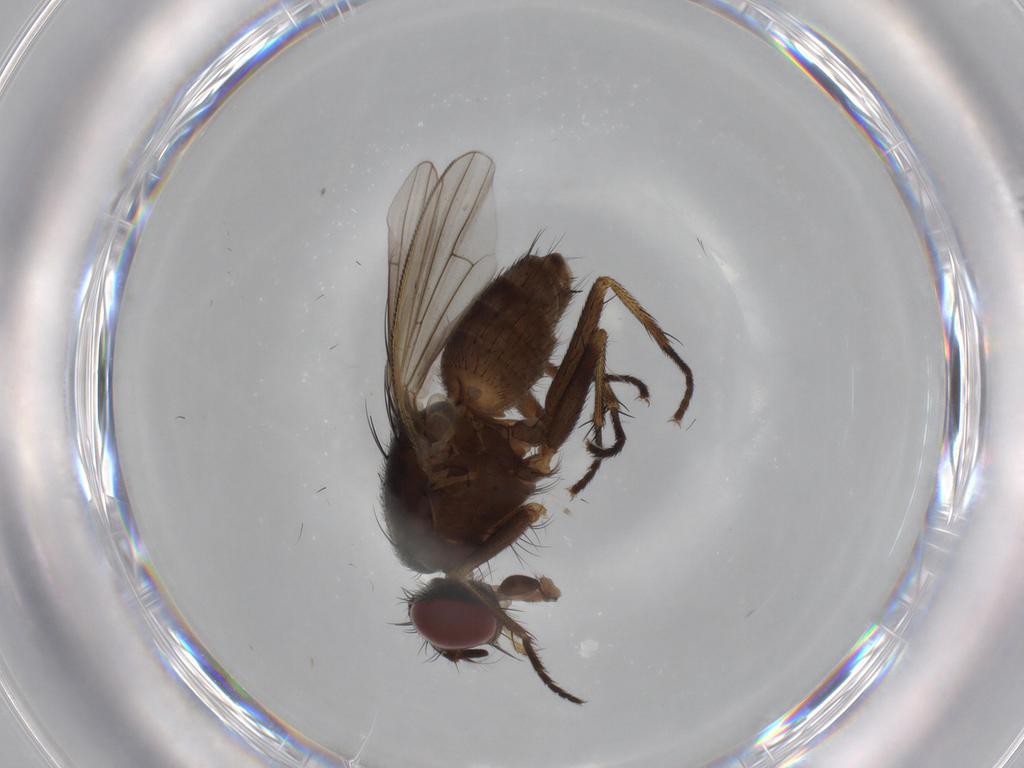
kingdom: Animalia
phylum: Arthropoda
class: Insecta
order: Diptera
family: Muscidae
